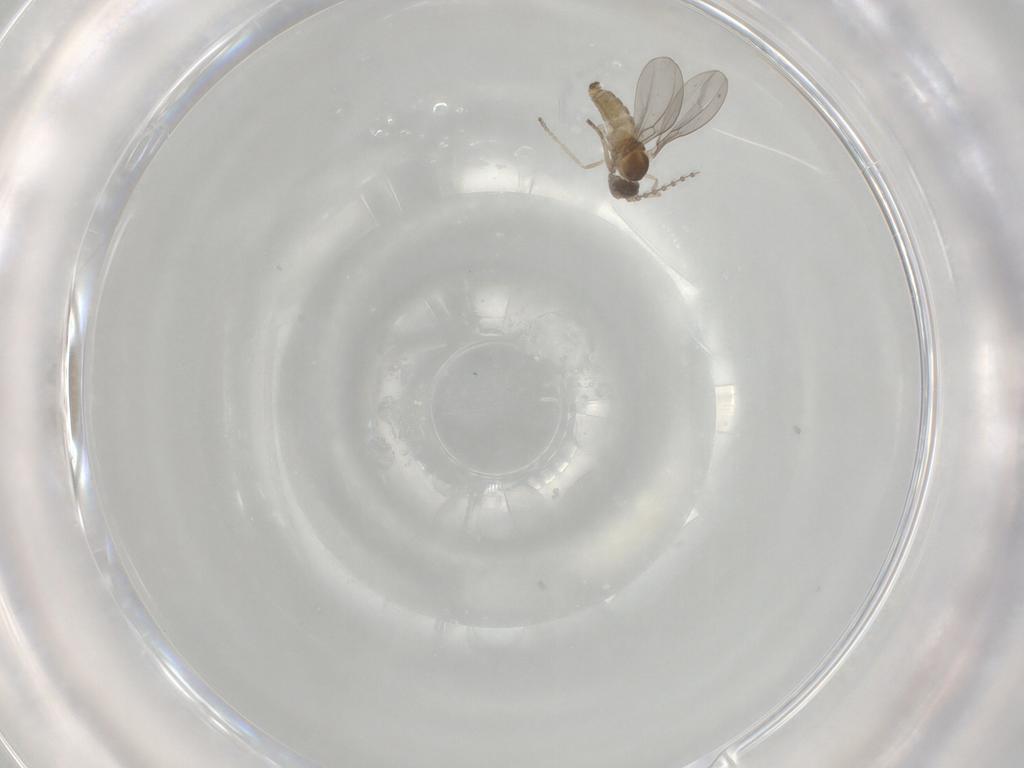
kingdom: Animalia
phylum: Arthropoda
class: Insecta
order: Diptera
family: Cecidomyiidae
